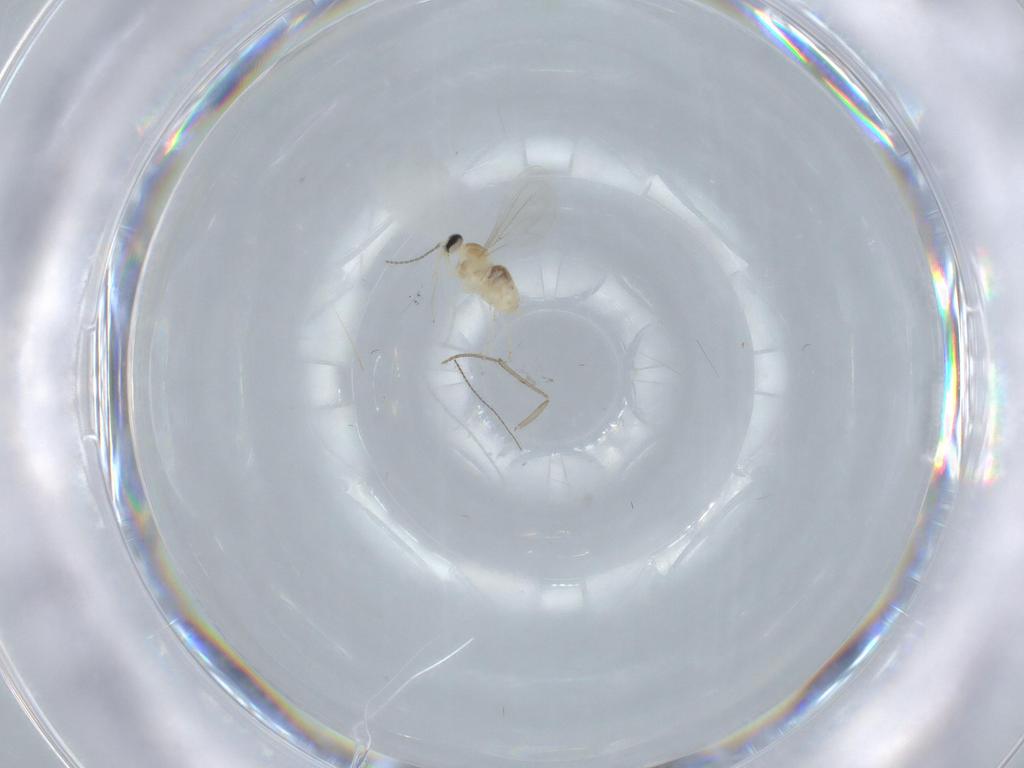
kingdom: Animalia
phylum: Arthropoda
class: Insecta
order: Diptera
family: Cecidomyiidae
